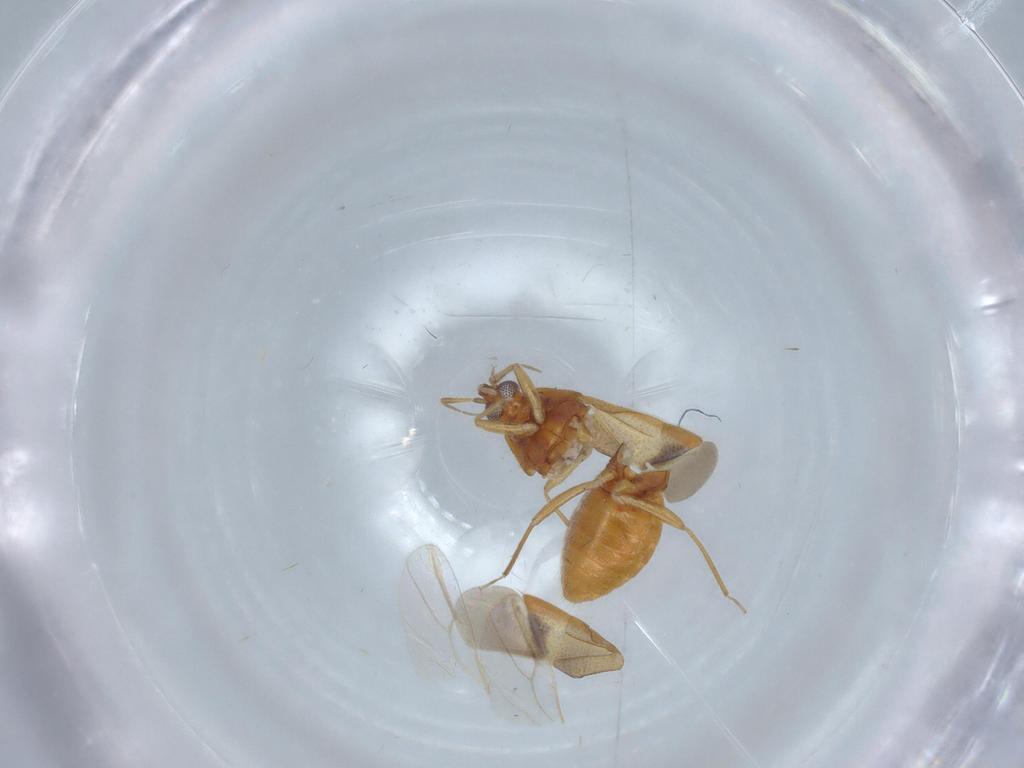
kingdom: Animalia
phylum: Arthropoda
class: Insecta
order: Hemiptera
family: Anthocoridae
